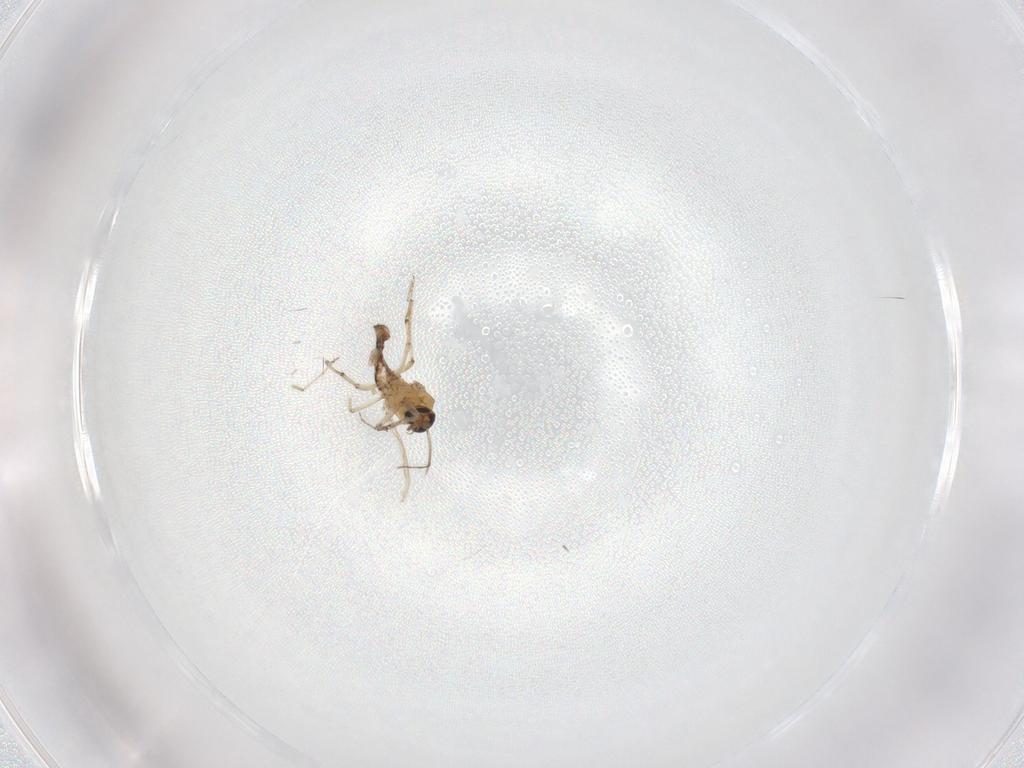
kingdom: Animalia
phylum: Arthropoda
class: Insecta
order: Diptera
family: Ceratopogonidae
